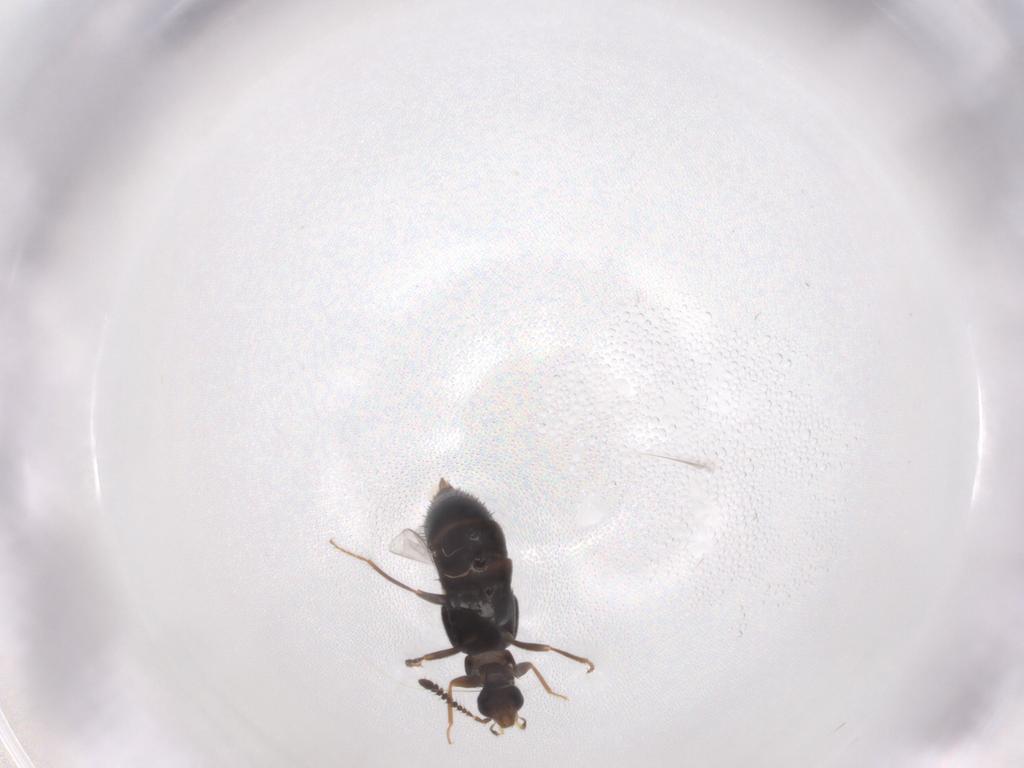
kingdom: Animalia
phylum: Arthropoda
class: Insecta
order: Coleoptera
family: Staphylinidae
